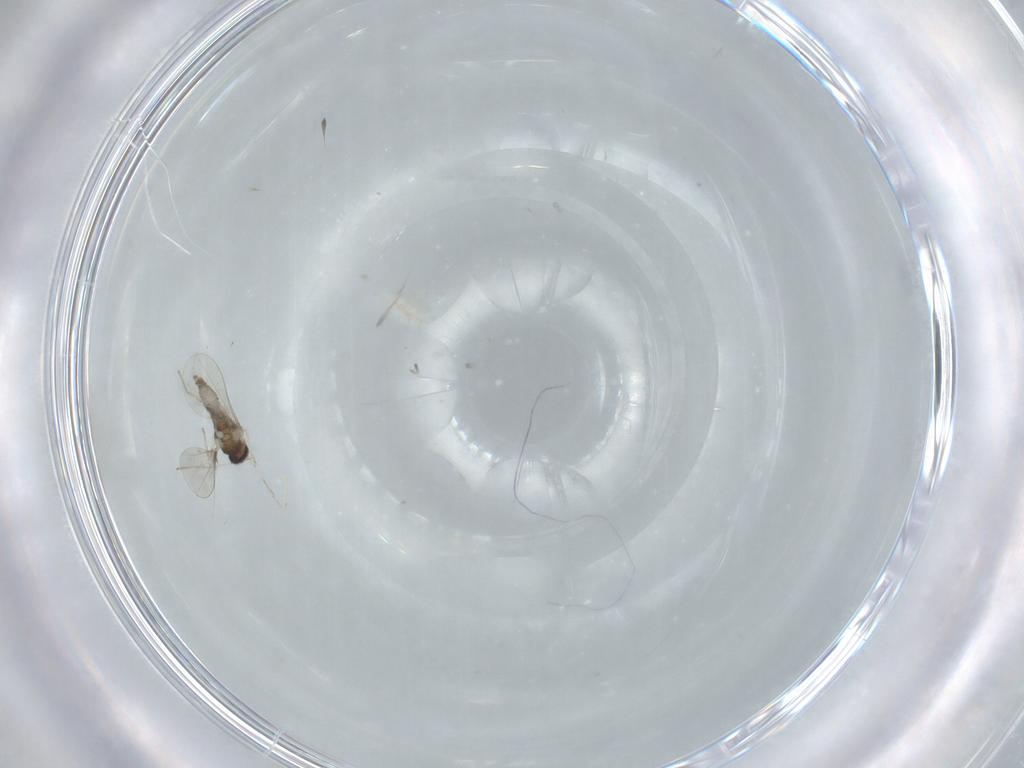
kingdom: Animalia
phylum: Arthropoda
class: Insecta
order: Diptera
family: Cecidomyiidae
